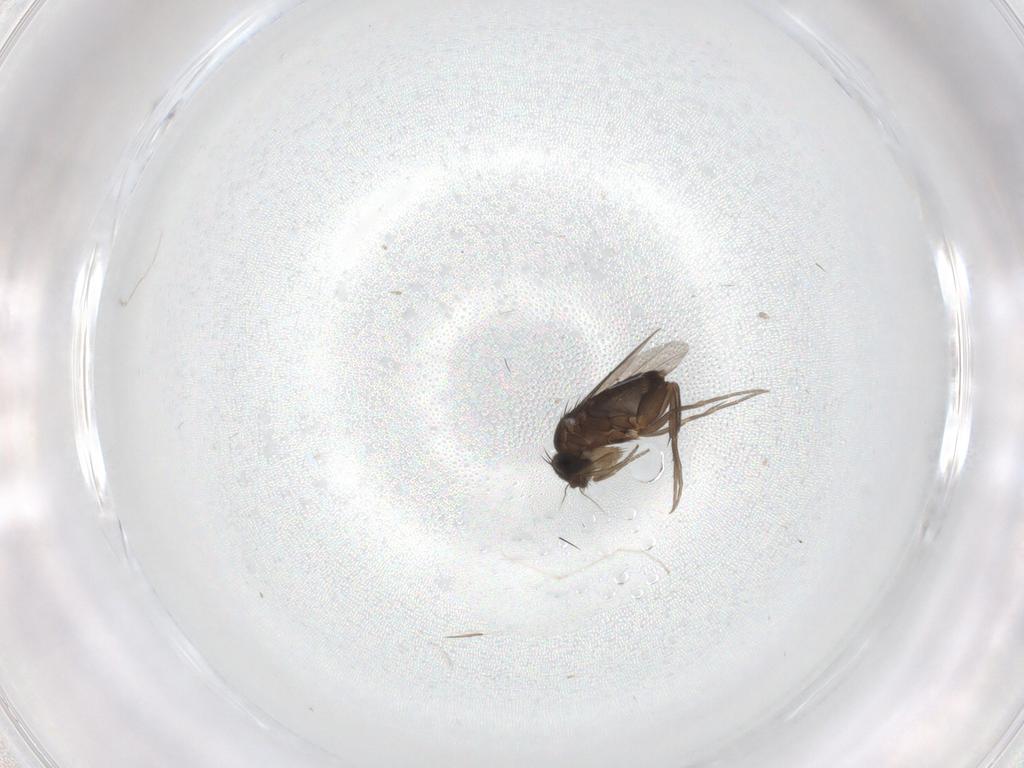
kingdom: Animalia
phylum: Arthropoda
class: Insecta
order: Diptera
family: Phoridae
